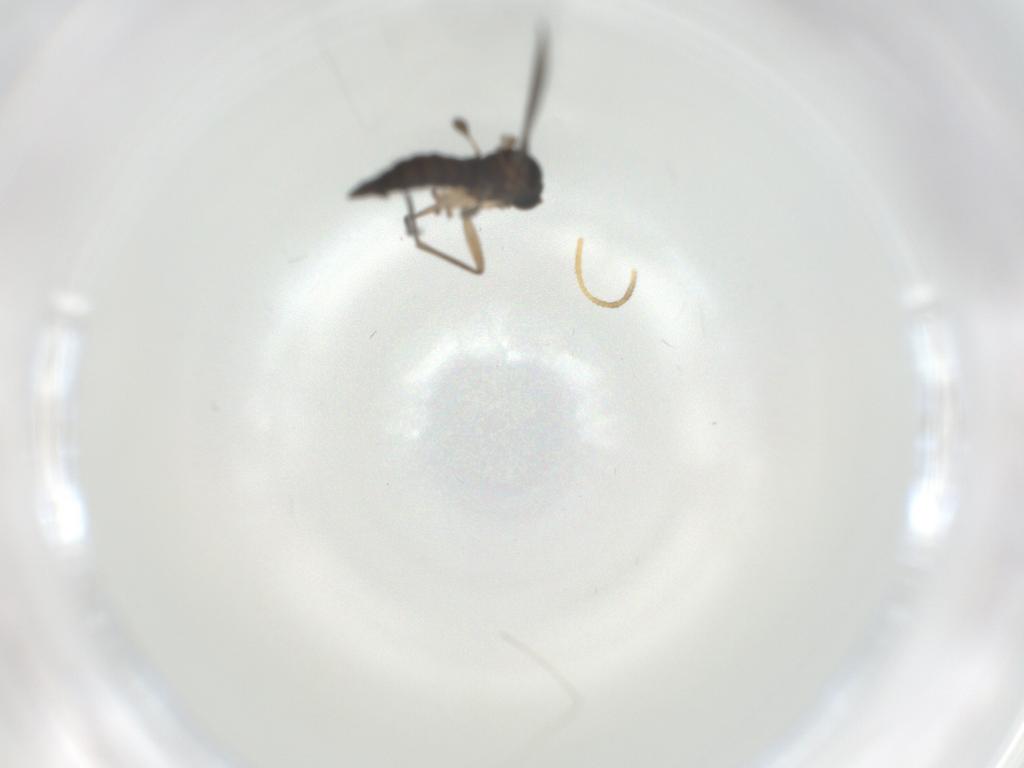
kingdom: Animalia
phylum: Arthropoda
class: Insecta
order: Diptera
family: Sciaridae
